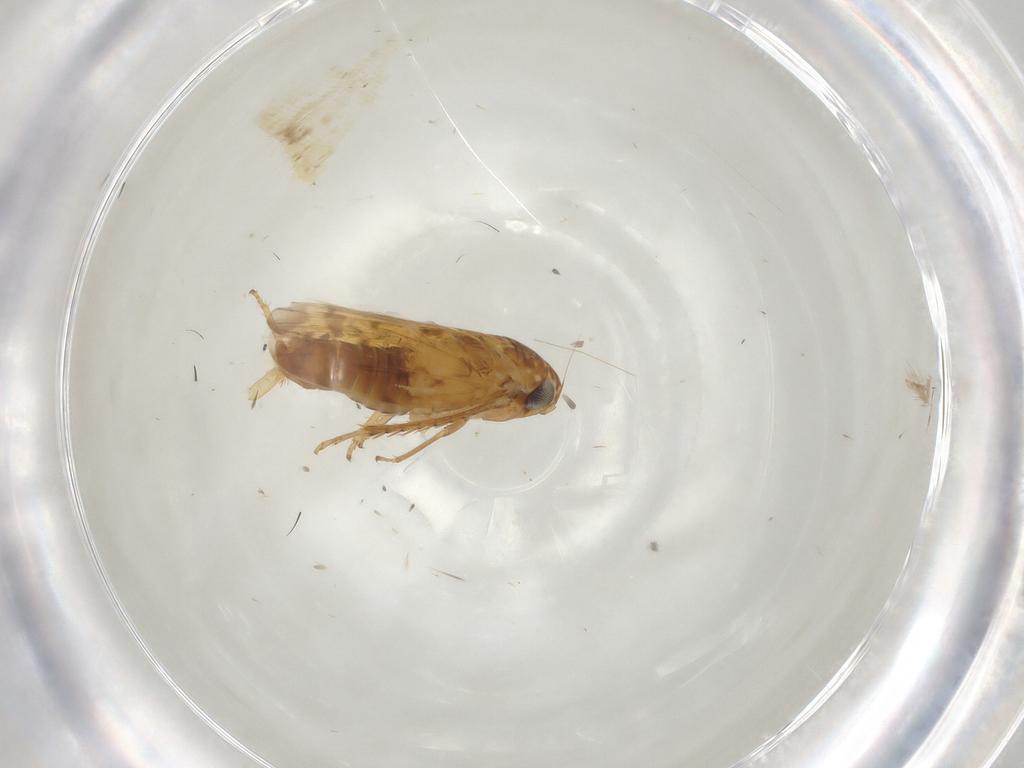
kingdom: Animalia
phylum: Arthropoda
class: Insecta
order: Hemiptera
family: Cicadellidae
